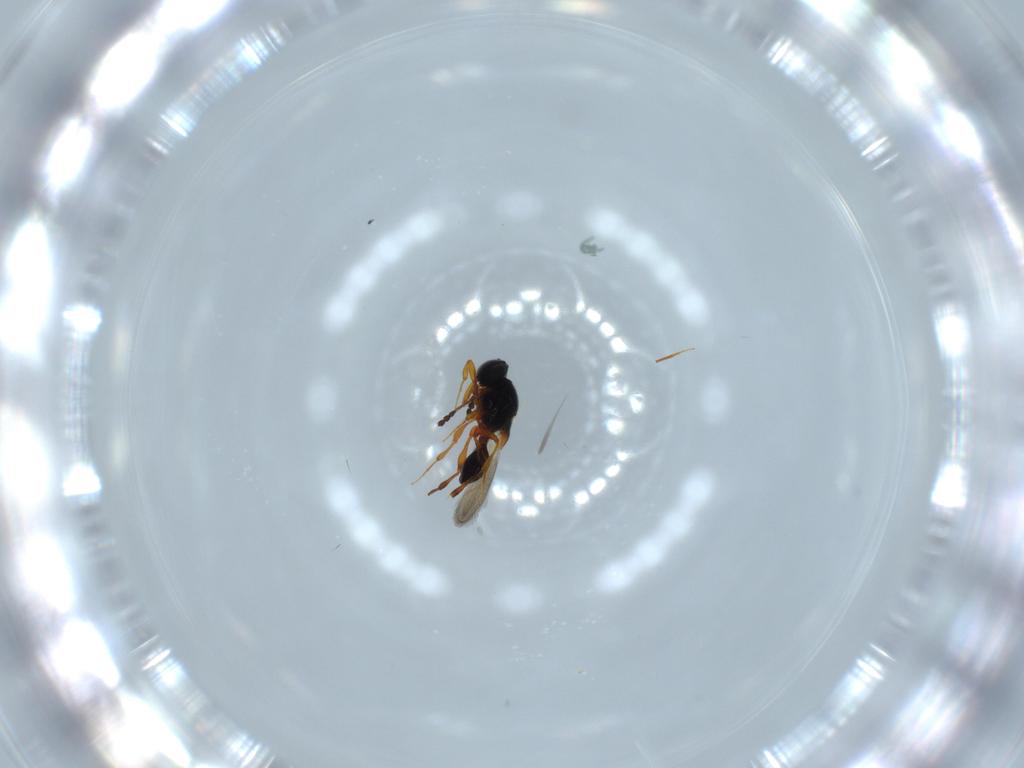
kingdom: Animalia
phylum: Arthropoda
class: Insecta
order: Hymenoptera
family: Platygastridae
